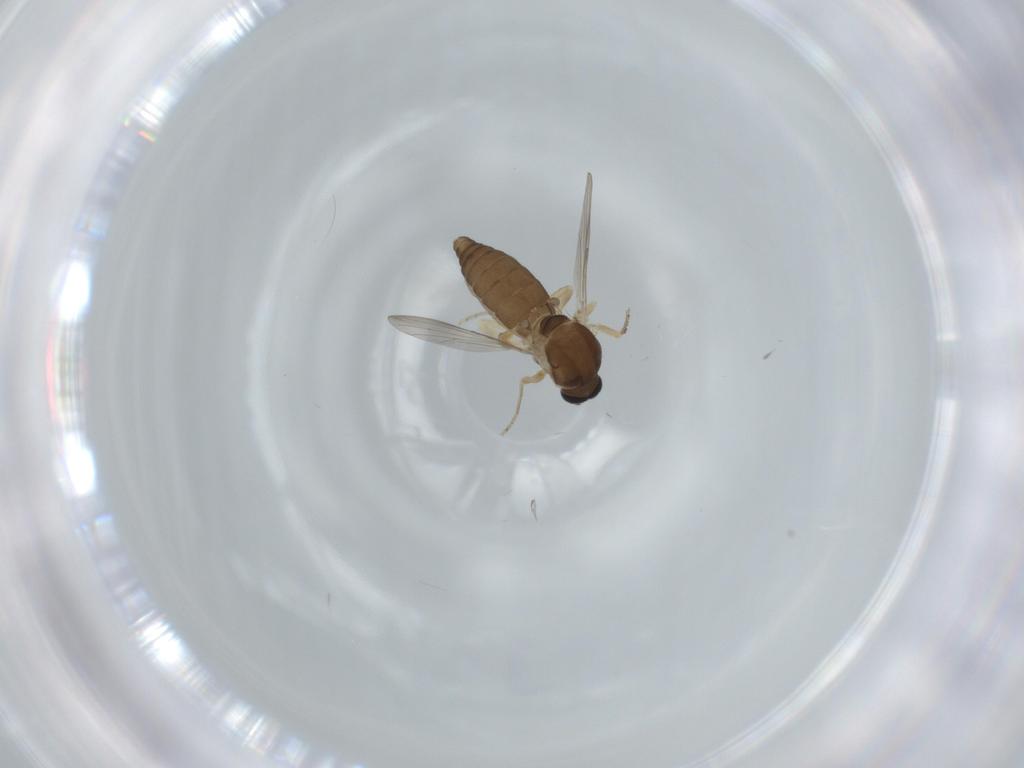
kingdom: Animalia
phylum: Arthropoda
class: Insecta
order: Diptera
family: Ceratopogonidae
